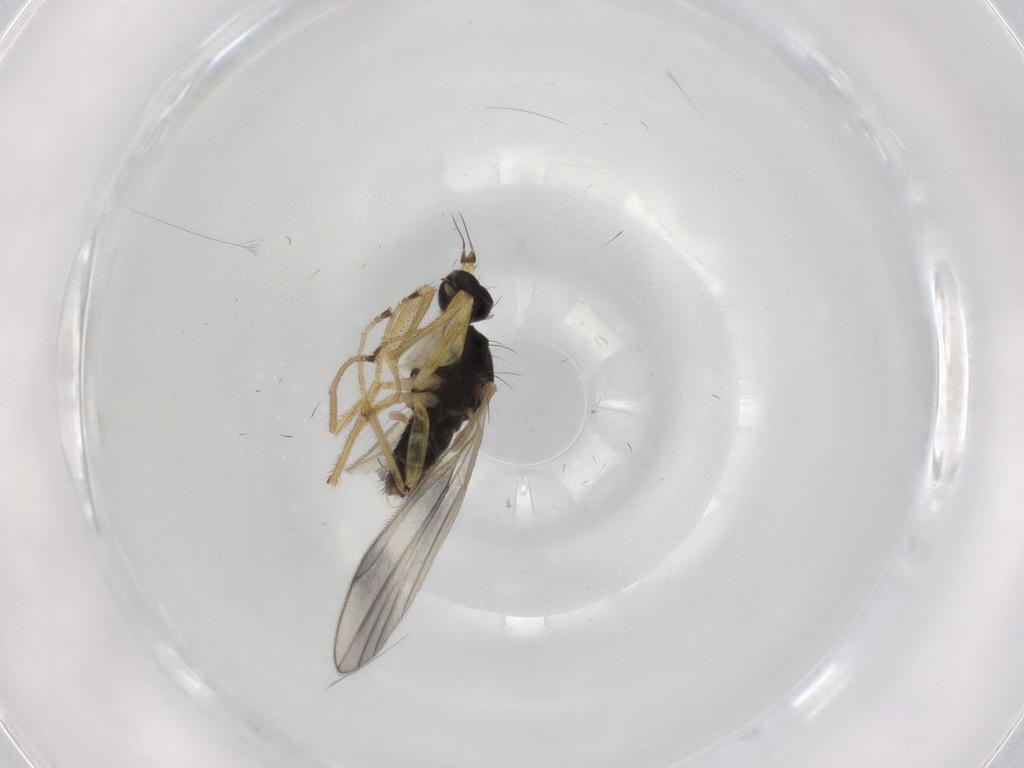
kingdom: Animalia
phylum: Arthropoda
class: Insecta
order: Diptera
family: Empididae
